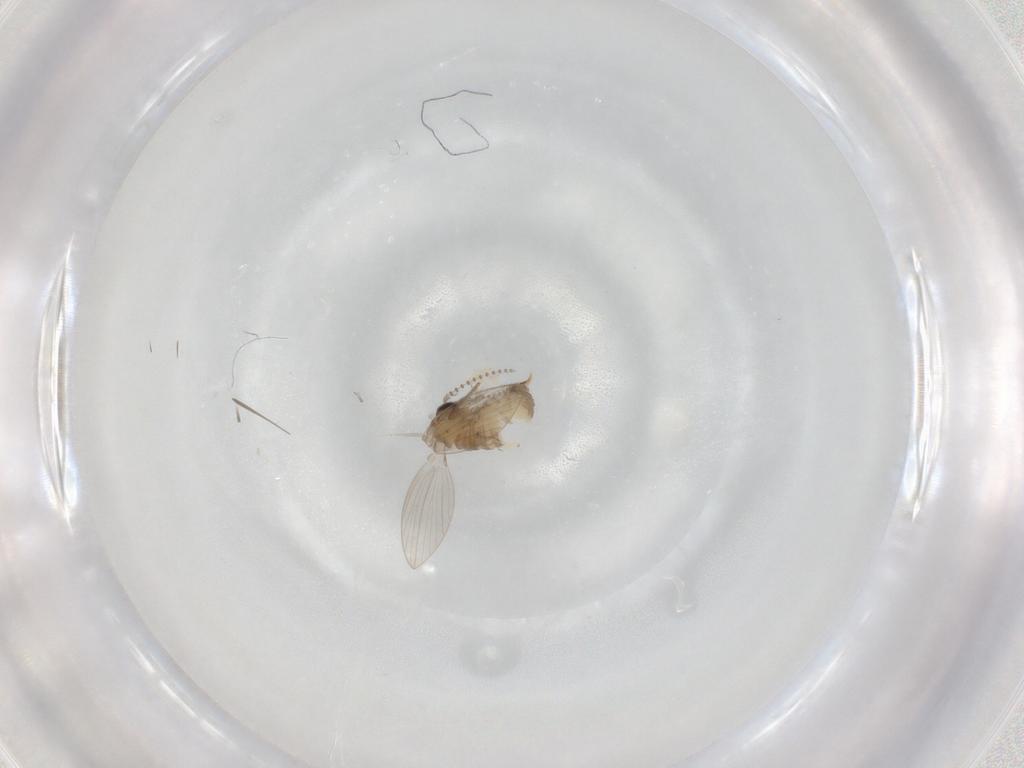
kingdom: Animalia
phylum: Arthropoda
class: Insecta
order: Diptera
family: Psychodidae
